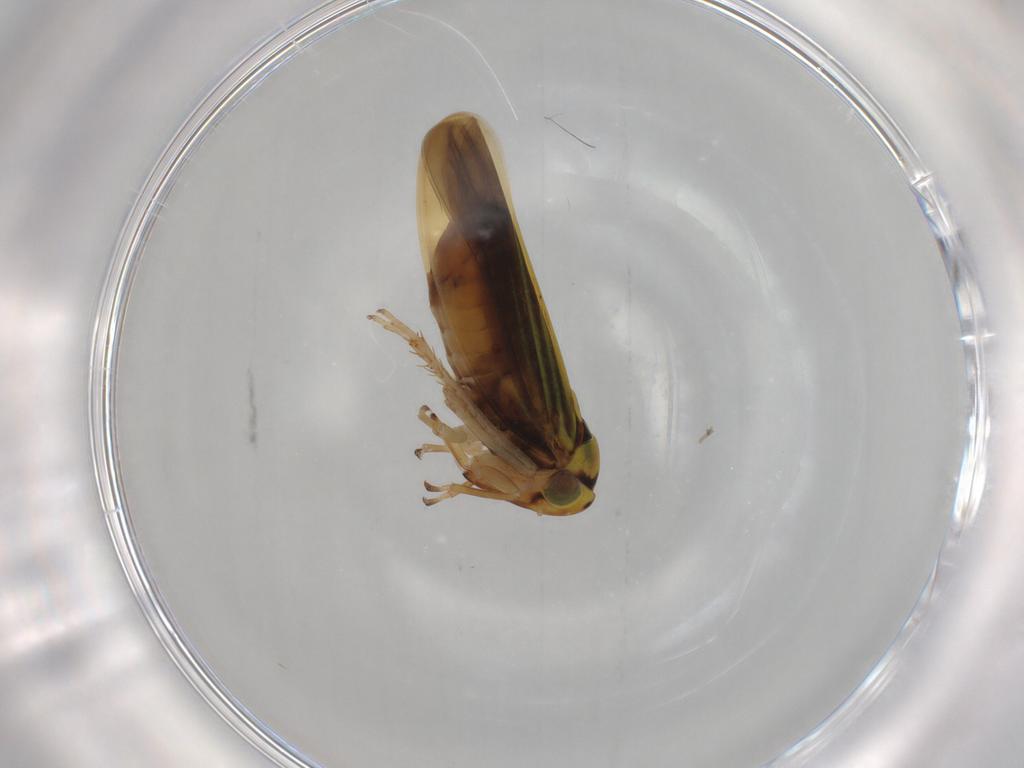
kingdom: Animalia
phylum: Arthropoda
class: Insecta
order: Hemiptera
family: Cicadellidae
